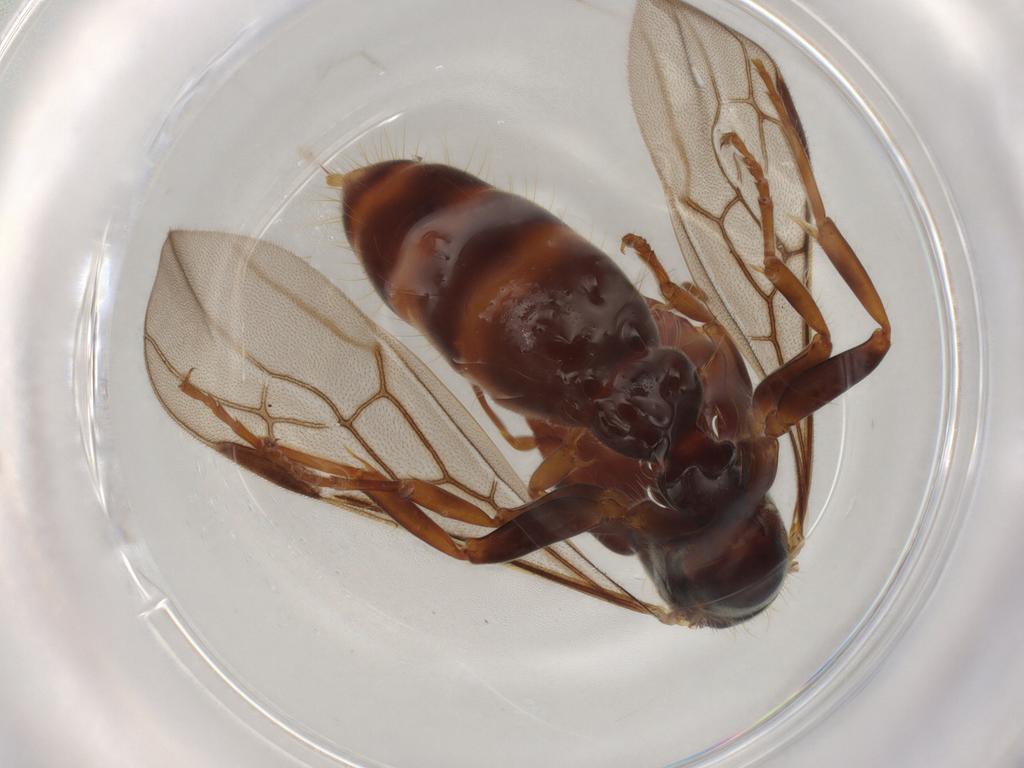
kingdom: Animalia
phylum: Arthropoda
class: Insecta
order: Hymenoptera
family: Formicidae
